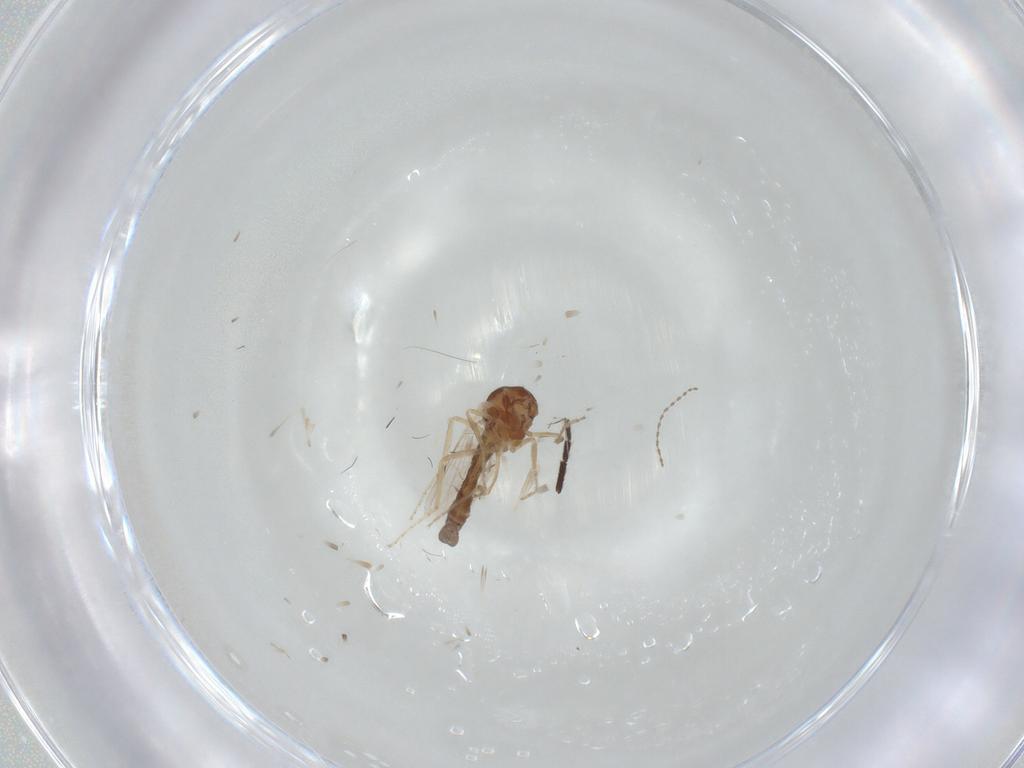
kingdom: Animalia
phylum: Arthropoda
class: Insecta
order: Diptera
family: Ceratopogonidae
